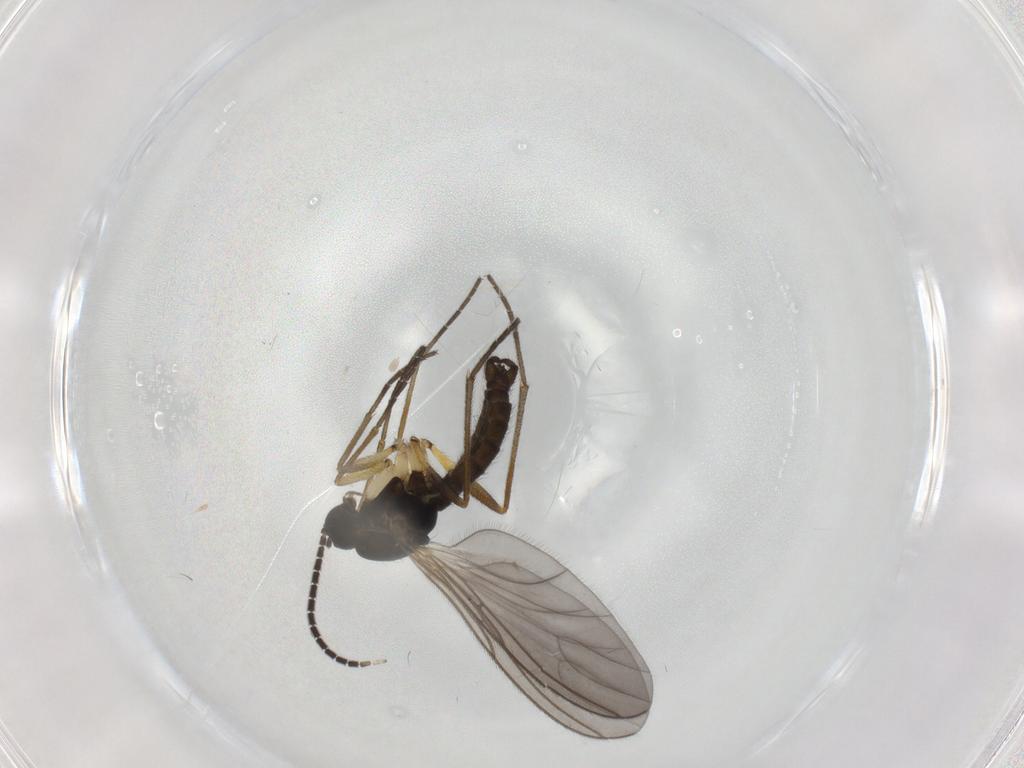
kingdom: Animalia
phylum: Arthropoda
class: Insecta
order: Diptera
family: Sciaridae
